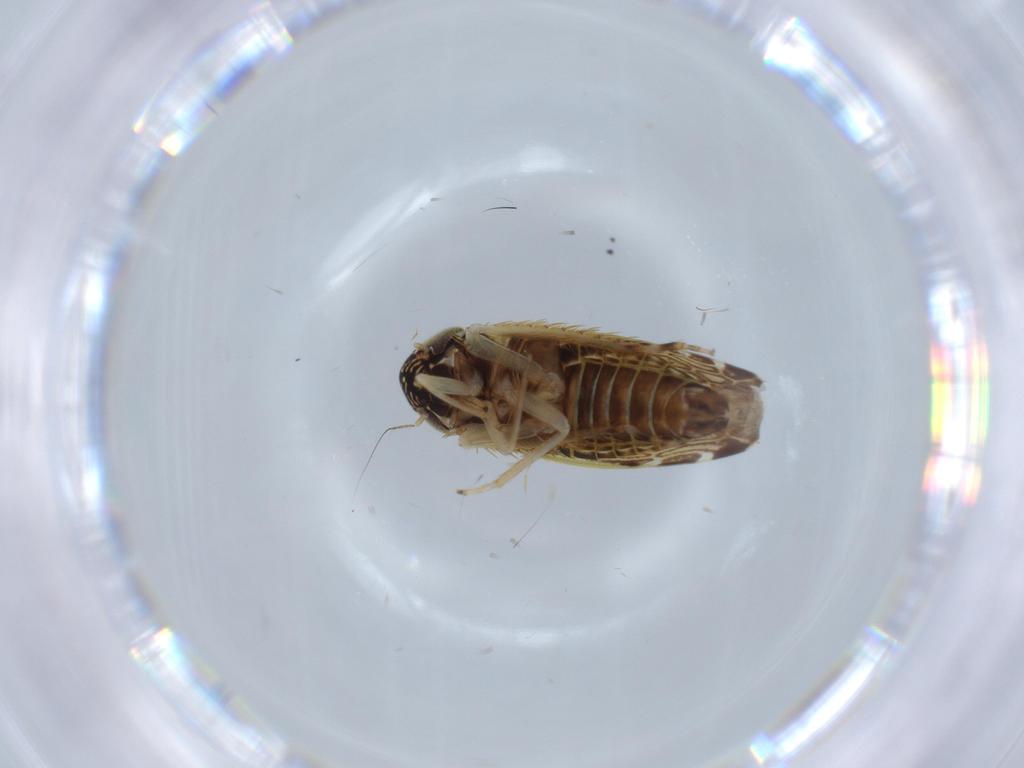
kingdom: Animalia
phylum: Arthropoda
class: Insecta
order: Hemiptera
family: Cicadellidae
